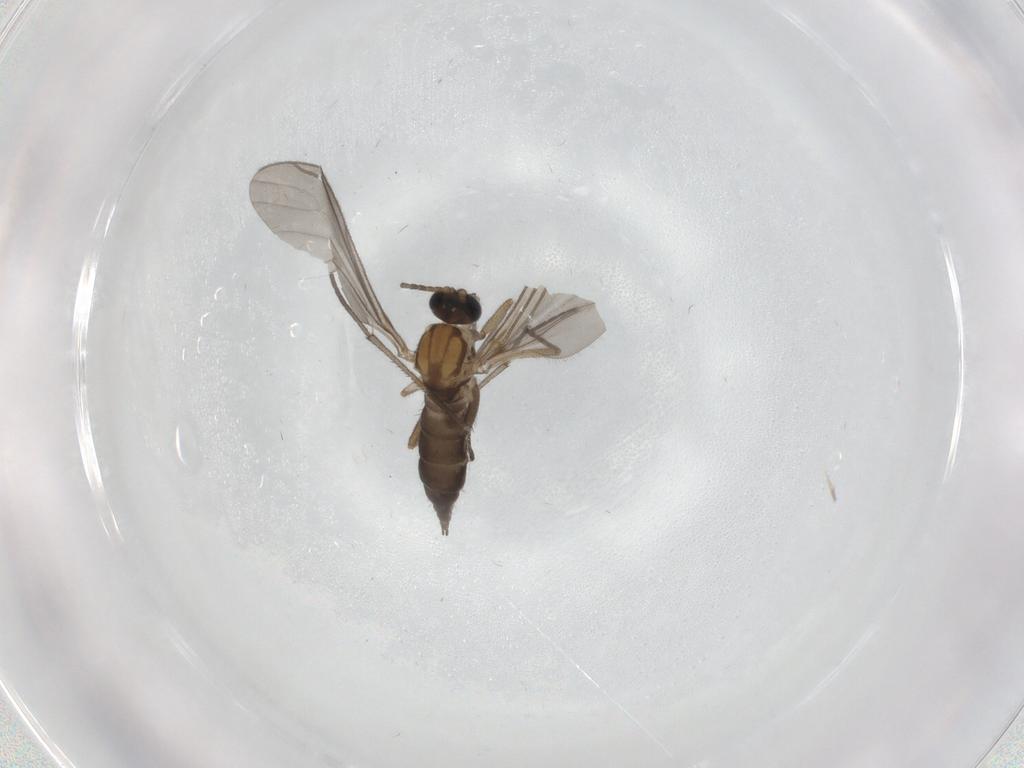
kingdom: Animalia
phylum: Arthropoda
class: Insecta
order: Diptera
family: Sciaridae
